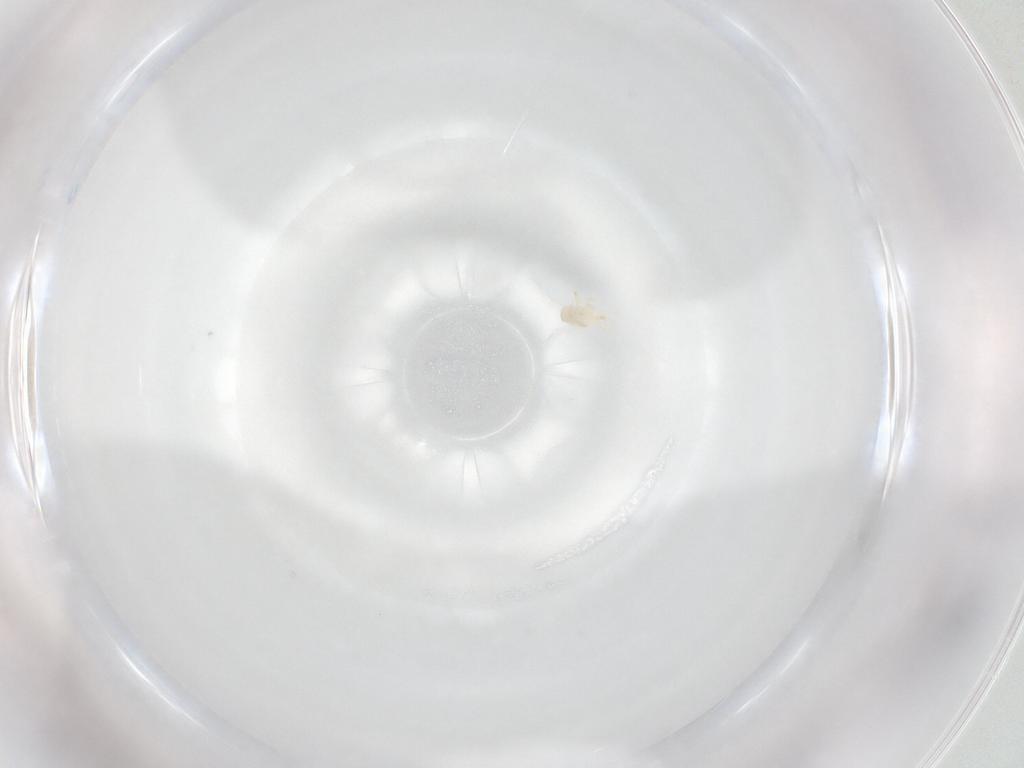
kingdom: Animalia
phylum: Arthropoda
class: Arachnida
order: Mesostigmata
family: Halolaelapidae
